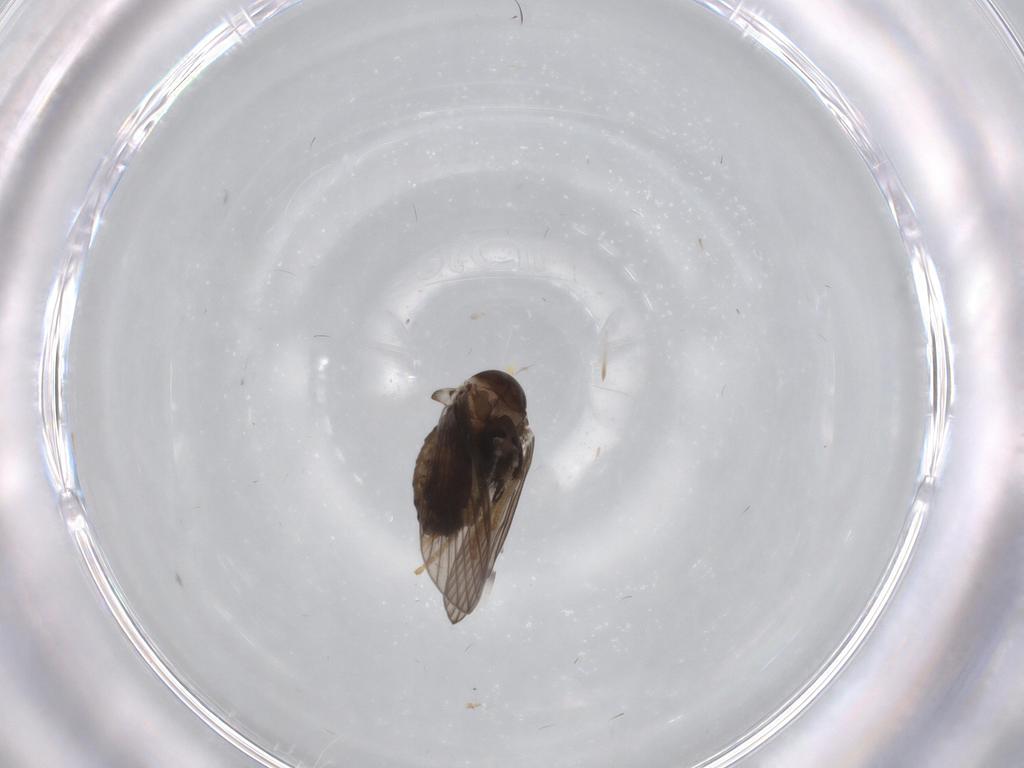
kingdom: Animalia
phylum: Arthropoda
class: Insecta
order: Diptera
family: Psychodidae
